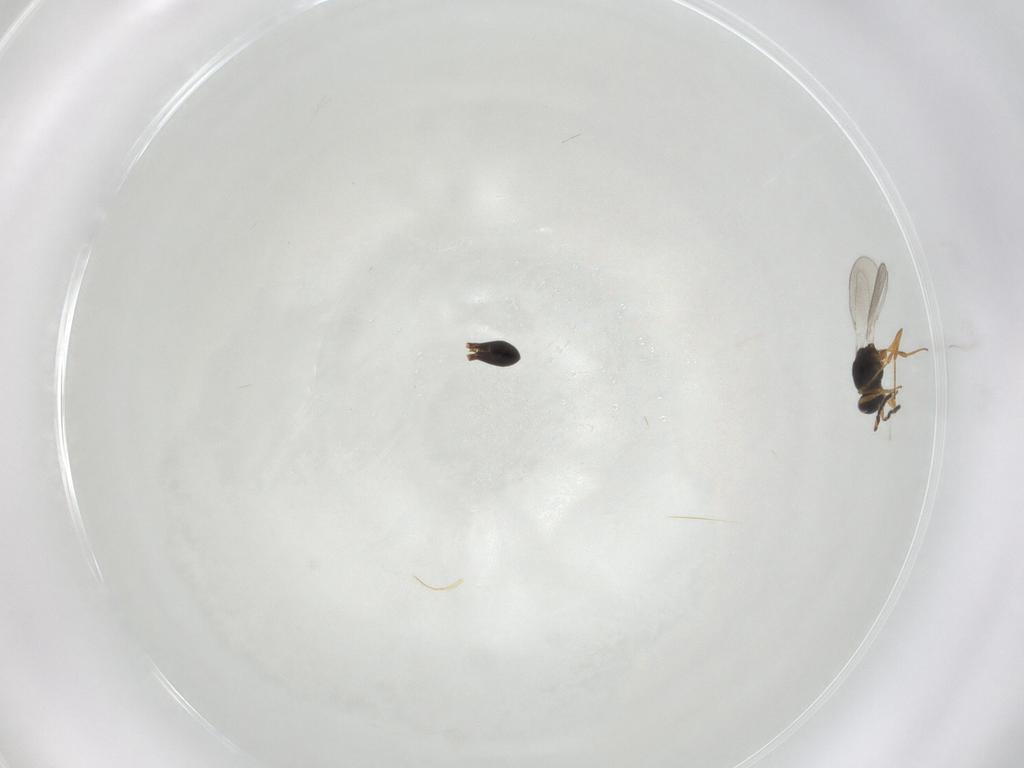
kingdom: Animalia
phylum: Arthropoda
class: Insecta
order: Hymenoptera
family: Platygastridae
